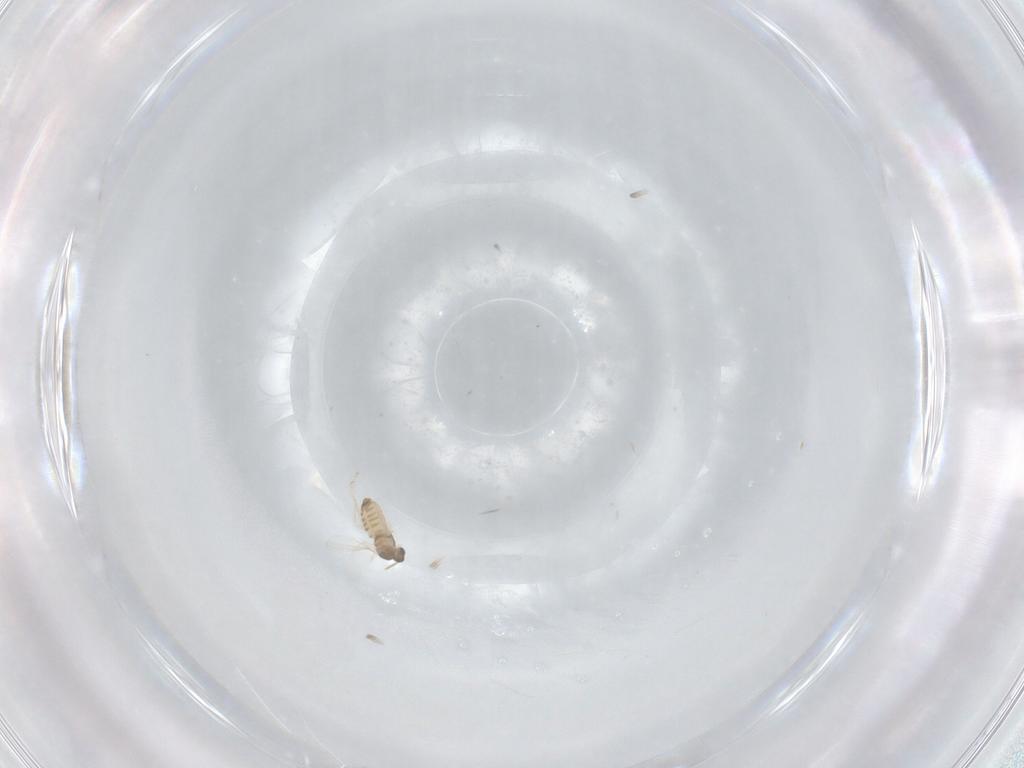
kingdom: Animalia
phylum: Arthropoda
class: Insecta
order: Diptera
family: Cecidomyiidae
